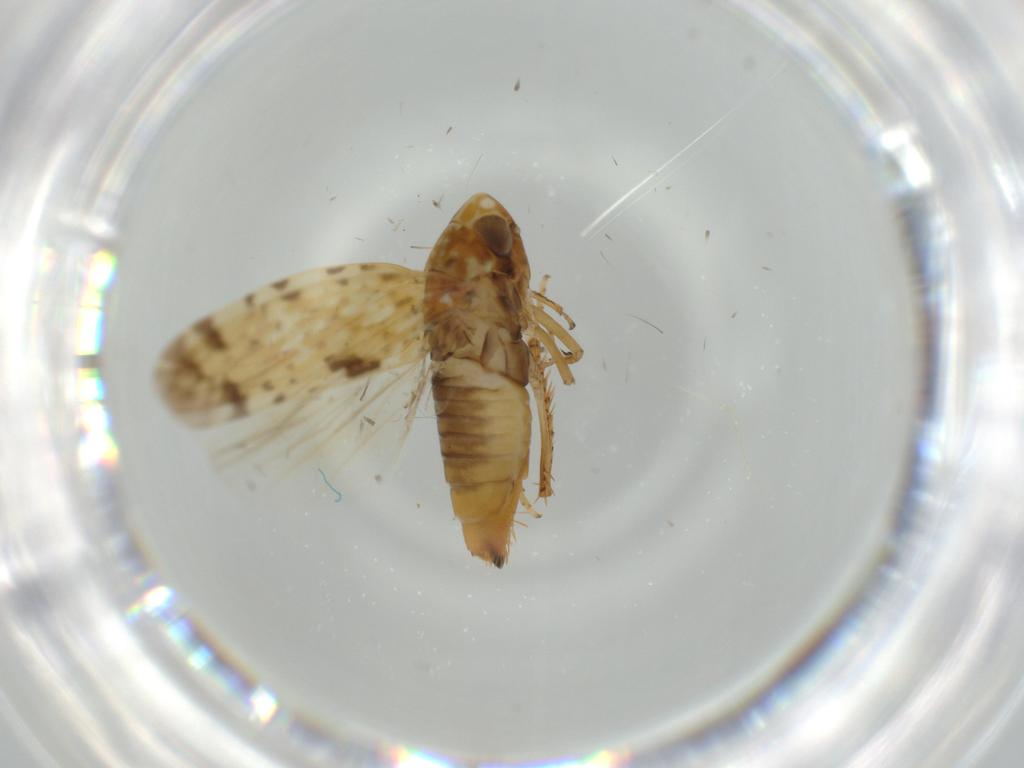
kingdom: Animalia
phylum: Arthropoda
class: Insecta
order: Hemiptera
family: Cicadellidae
